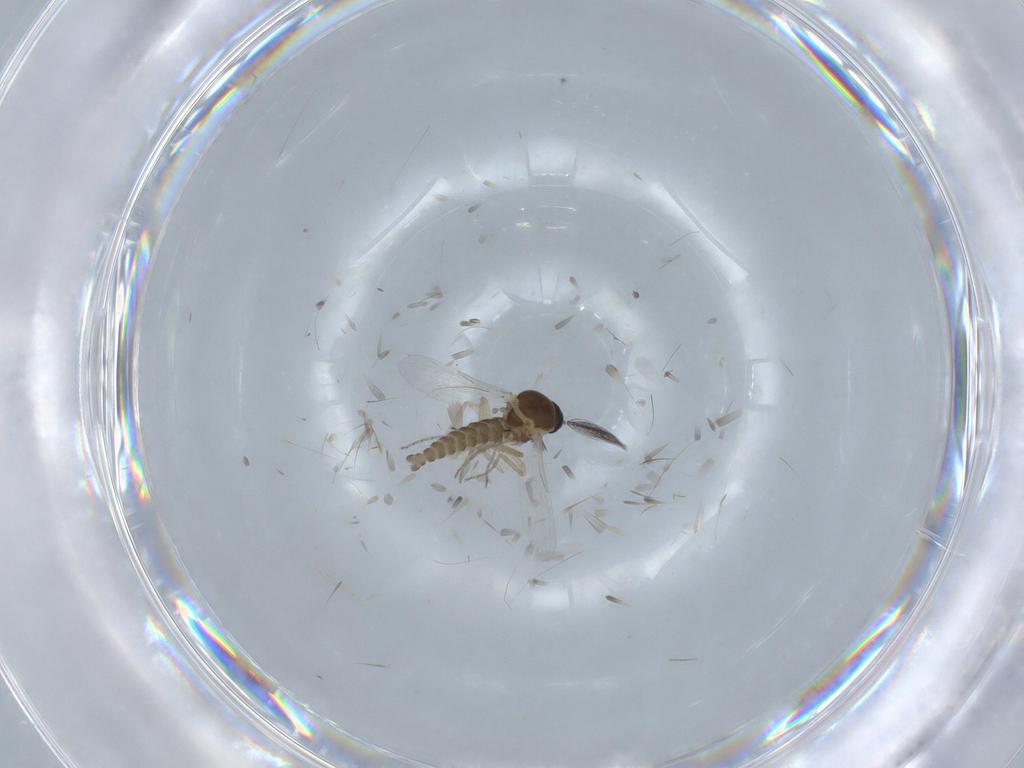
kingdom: Animalia
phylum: Arthropoda
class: Insecta
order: Diptera
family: Ceratopogonidae
